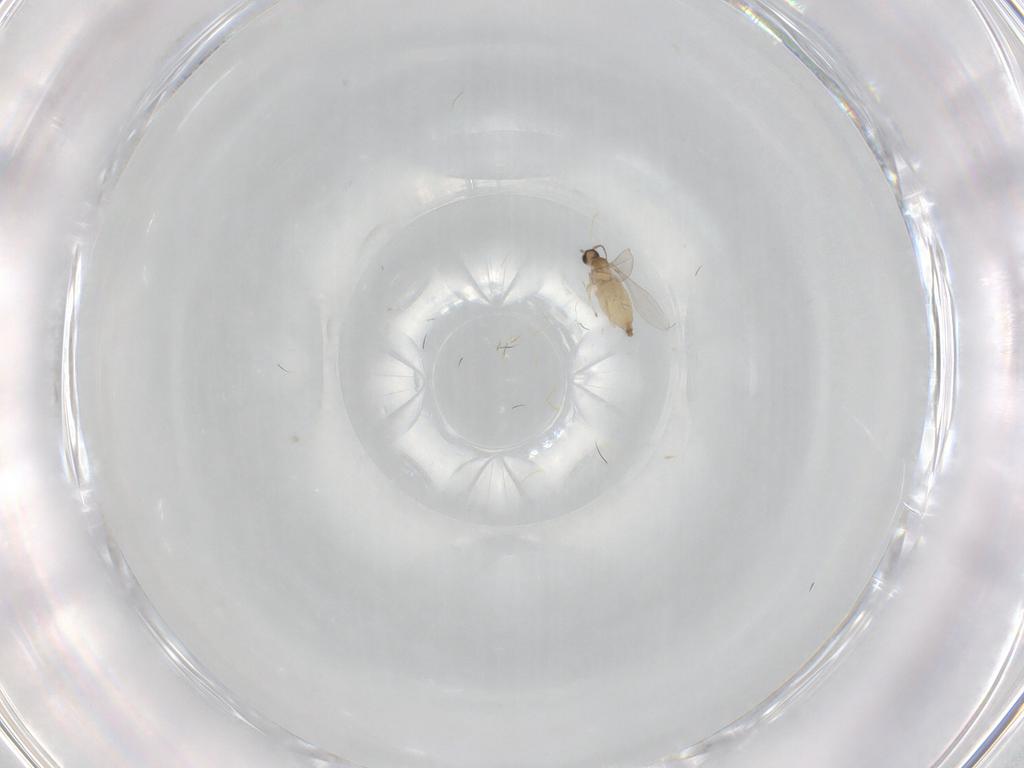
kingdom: Animalia
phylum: Arthropoda
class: Insecta
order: Diptera
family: Cecidomyiidae
